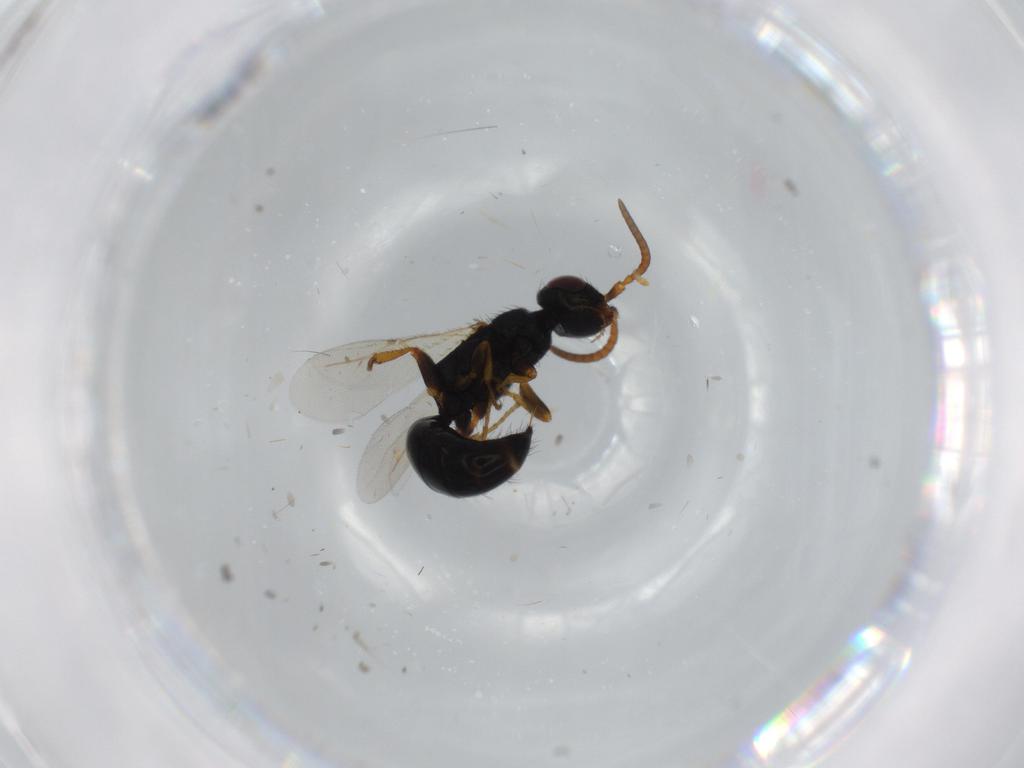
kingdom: Animalia
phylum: Arthropoda
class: Insecta
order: Hymenoptera
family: Bethylidae
